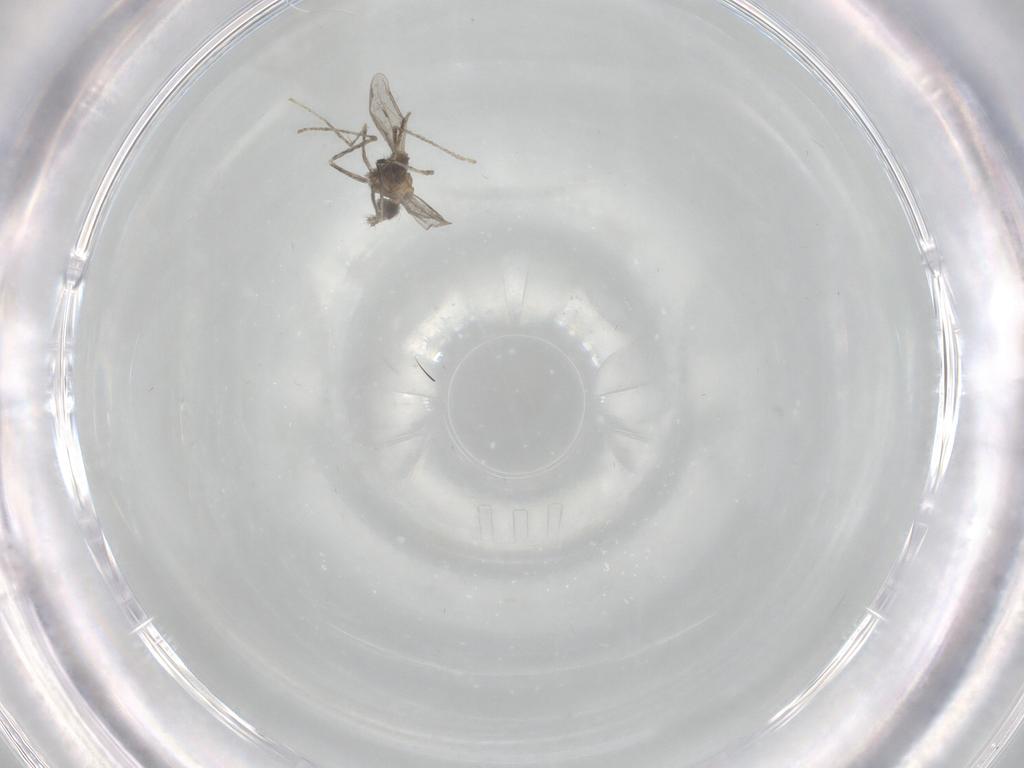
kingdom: Animalia
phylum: Arthropoda
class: Insecta
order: Diptera
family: Cecidomyiidae
